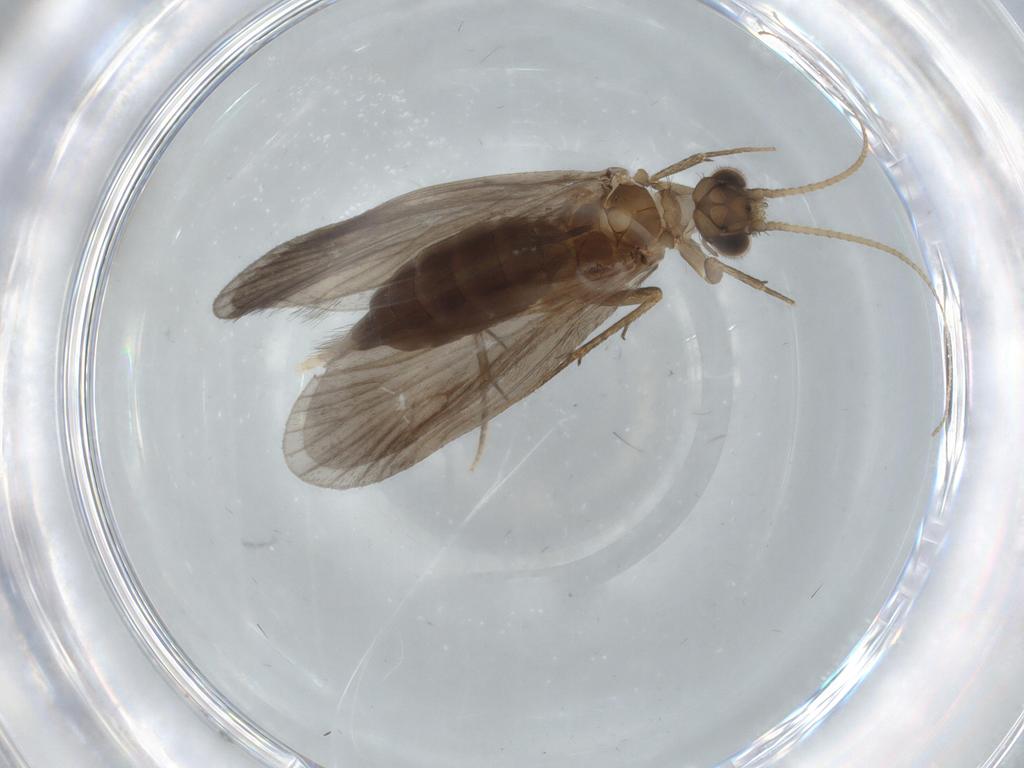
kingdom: Animalia
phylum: Arthropoda
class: Insecta
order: Trichoptera
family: Philopotamidae
